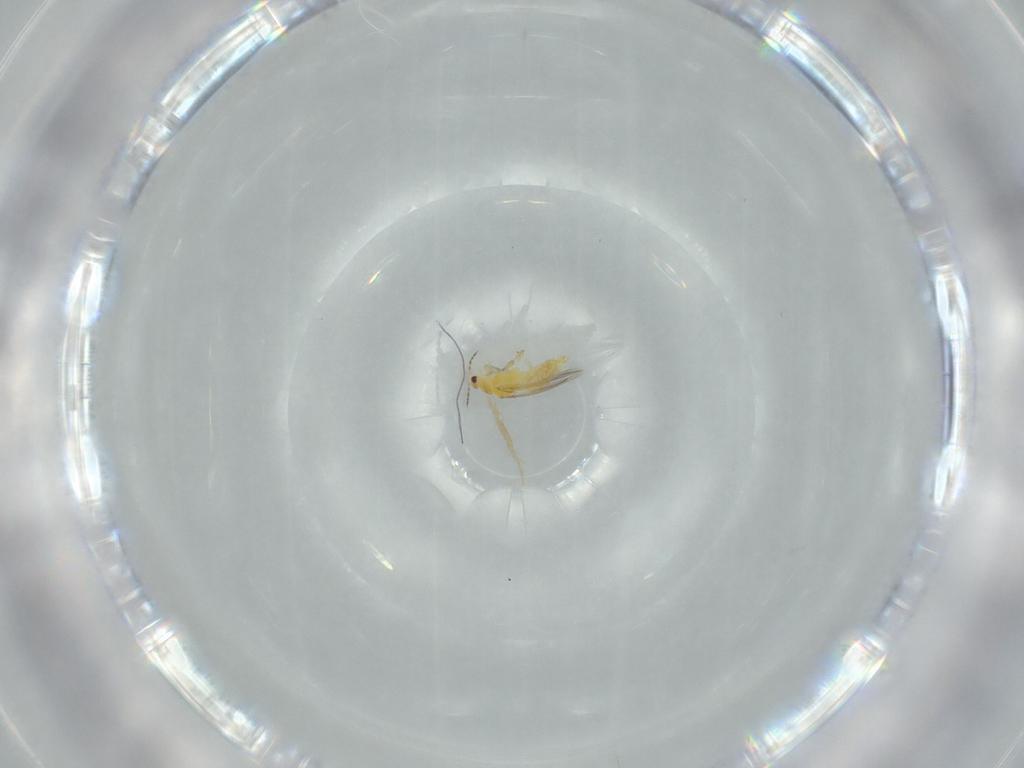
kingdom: Animalia
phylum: Arthropoda
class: Insecta
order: Thysanoptera
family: Thripidae
